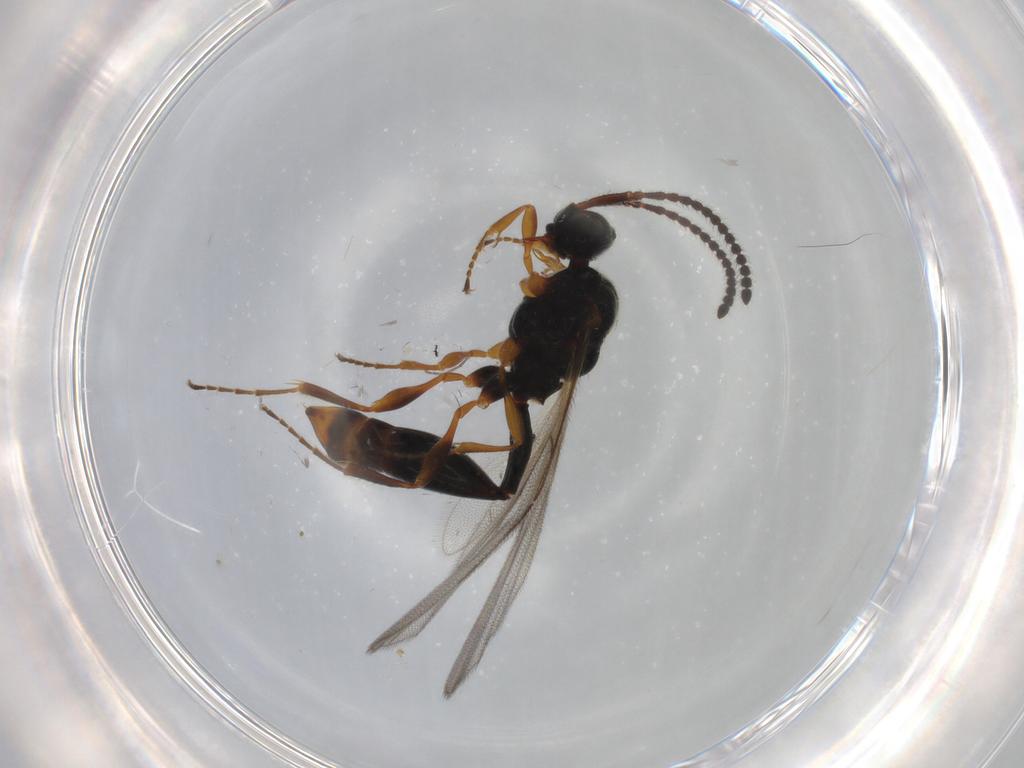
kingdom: Animalia
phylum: Arthropoda
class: Insecta
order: Hymenoptera
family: Diapriidae
